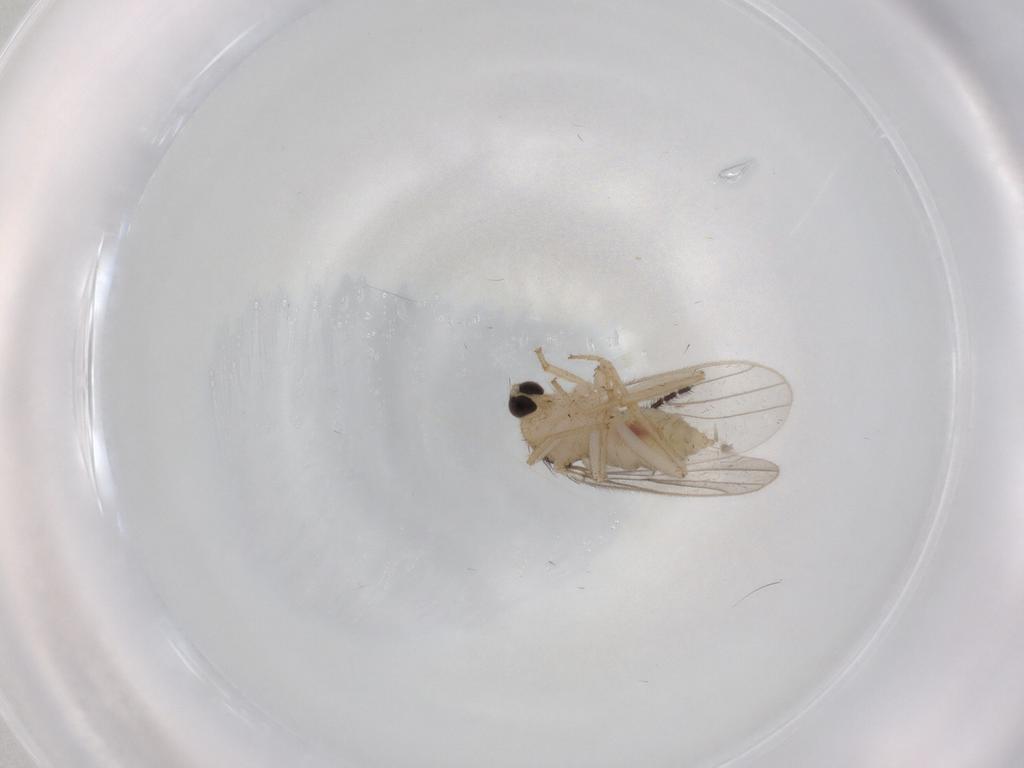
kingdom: Animalia
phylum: Arthropoda
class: Insecta
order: Diptera
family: Hybotidae
